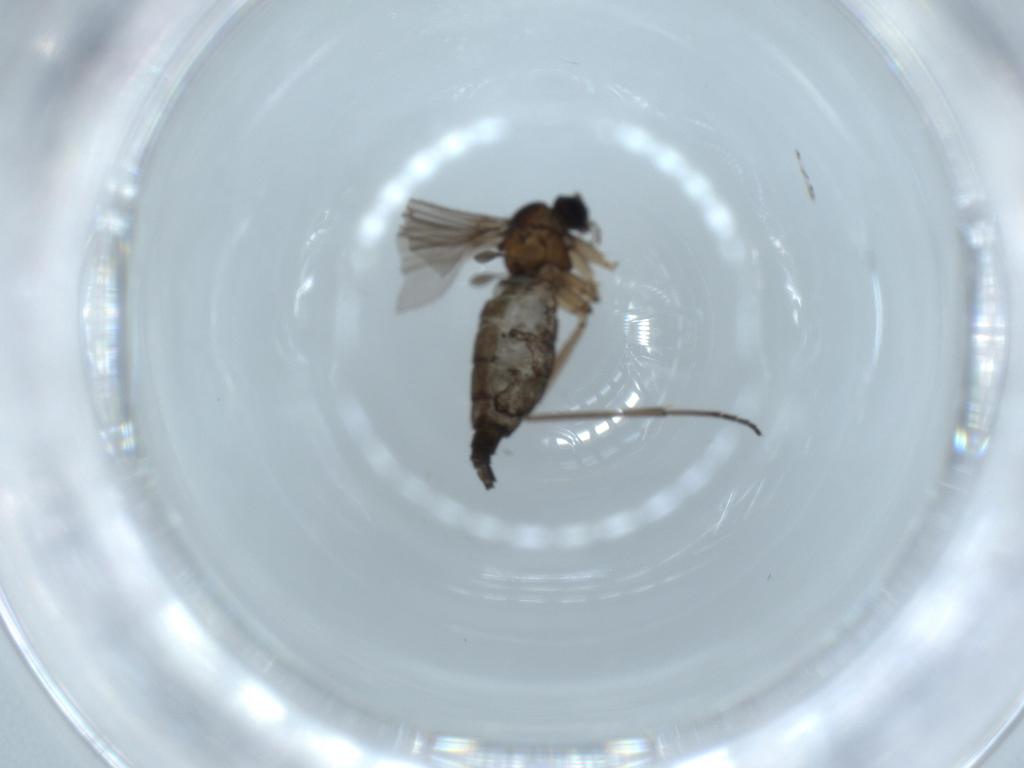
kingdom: Animalia
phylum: Arthropoda
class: Insecta
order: Diptera
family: Sciaridae
